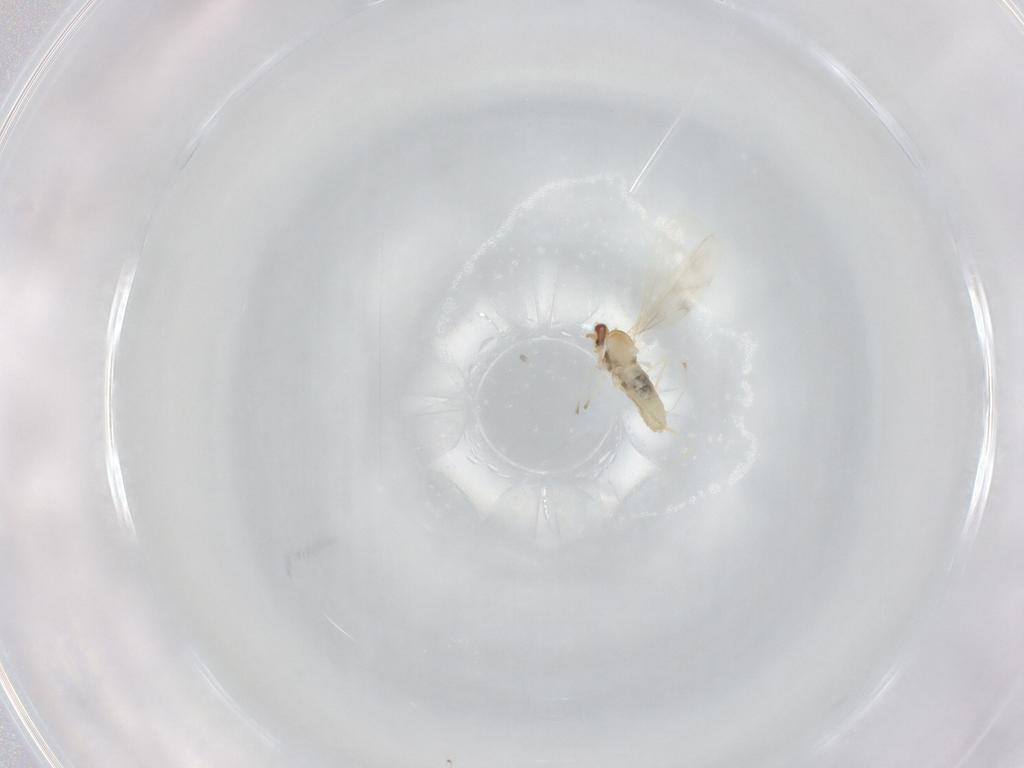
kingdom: Animalia
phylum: Arthropoda
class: Insecta
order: Diptera
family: Cecidomyiidae
